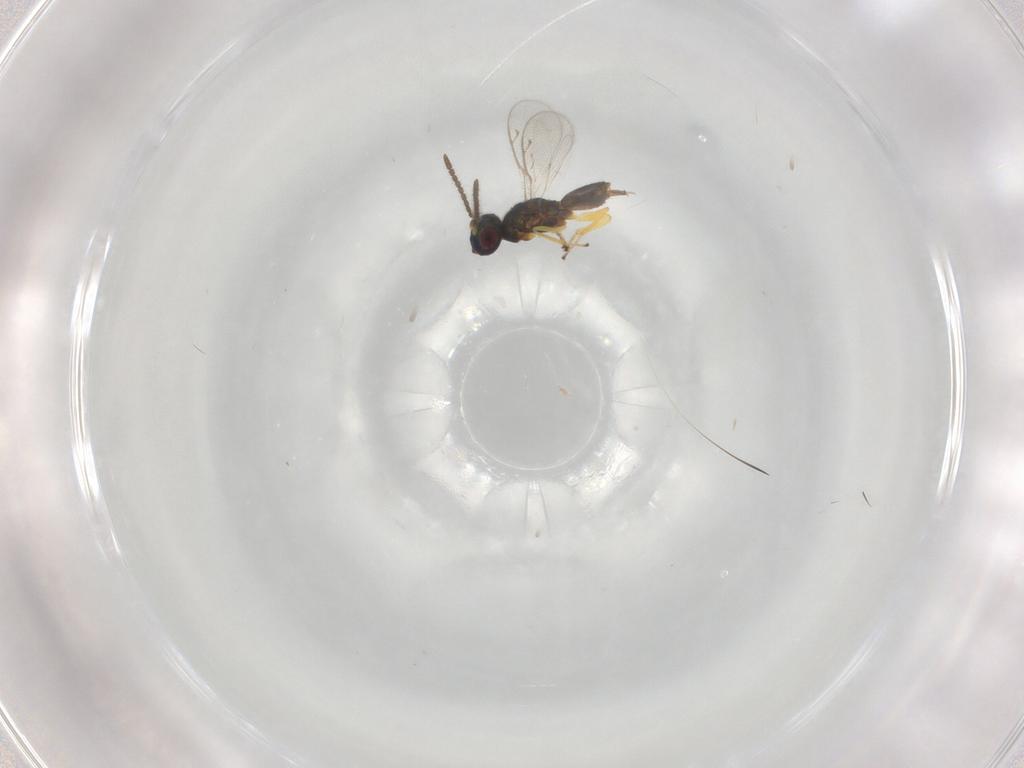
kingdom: Animalia
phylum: Arthropoda
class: Insecta
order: Hymenoptera
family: Eupelmidae
